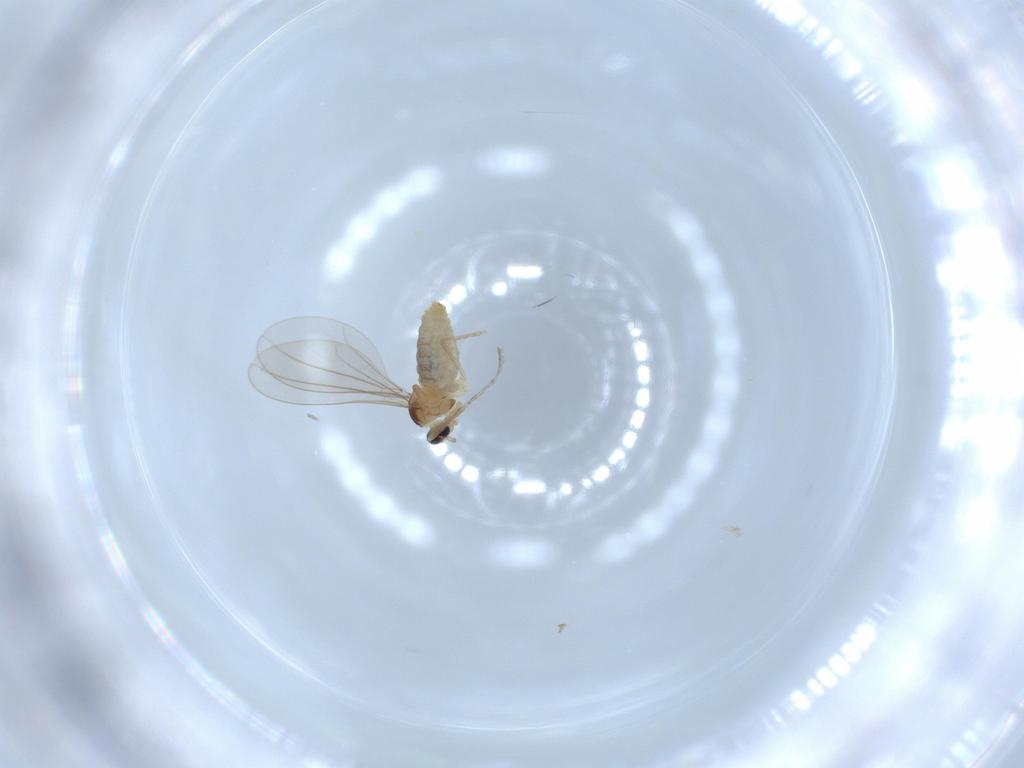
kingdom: Animalia
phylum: Arthropoda
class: Insecta
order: Diptera
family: Cecidomyiidae
